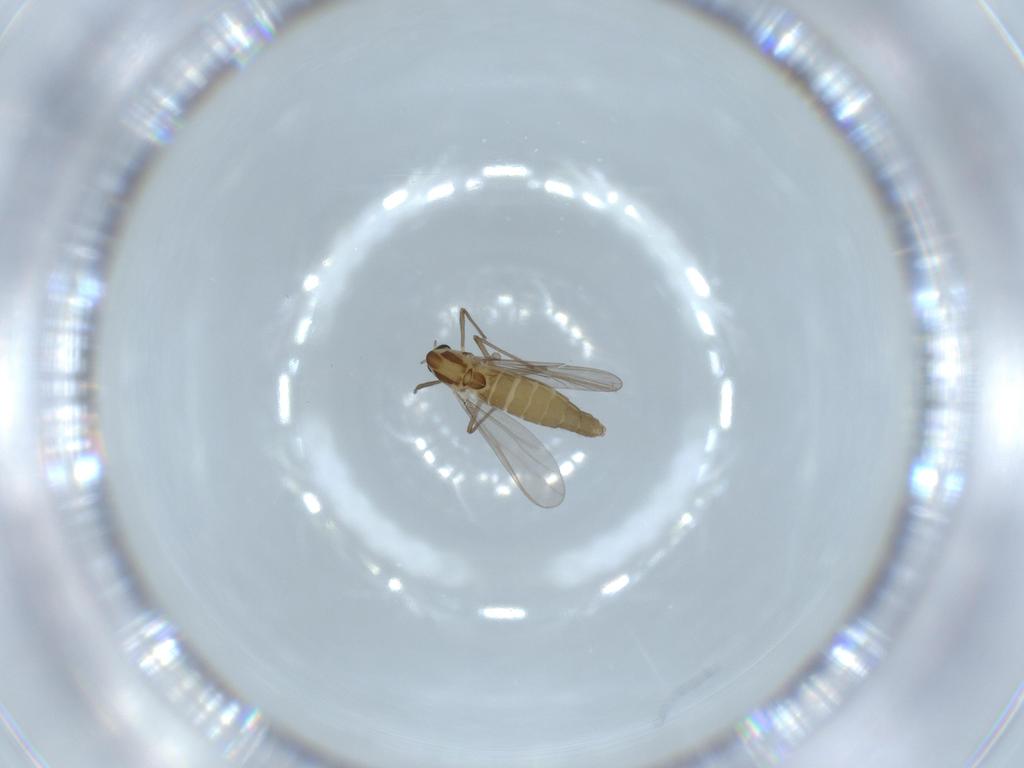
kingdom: Animalia
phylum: Arthropoda
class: Insecta
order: Diptera
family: Chironomidae
